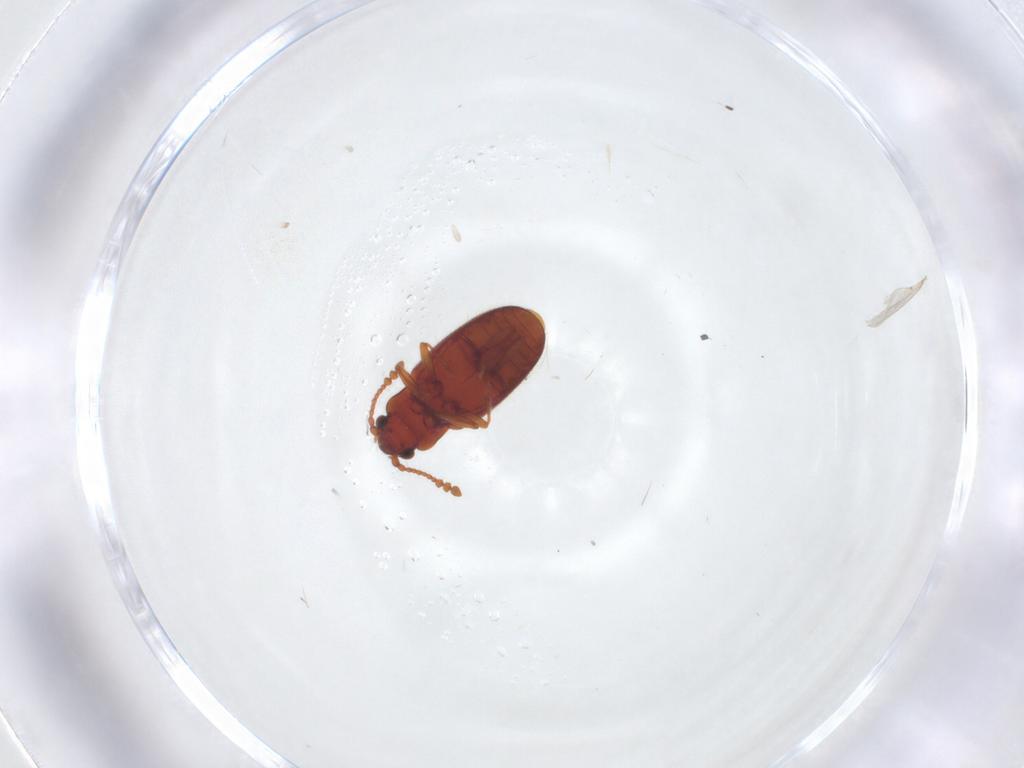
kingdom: Animalia
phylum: Arthropoda
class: Insecta
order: Coleoptera
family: Cryptophagidae
